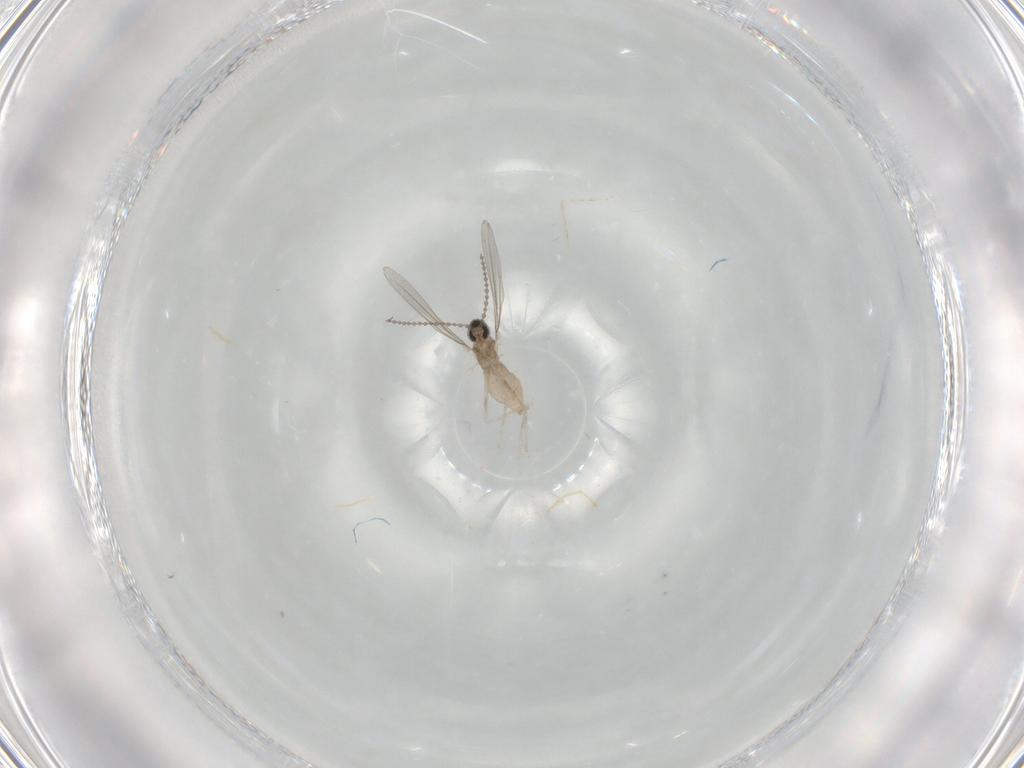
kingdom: Animalia
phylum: Arthropoda
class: Insecta
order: Diptera
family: Cecidomyiidae
